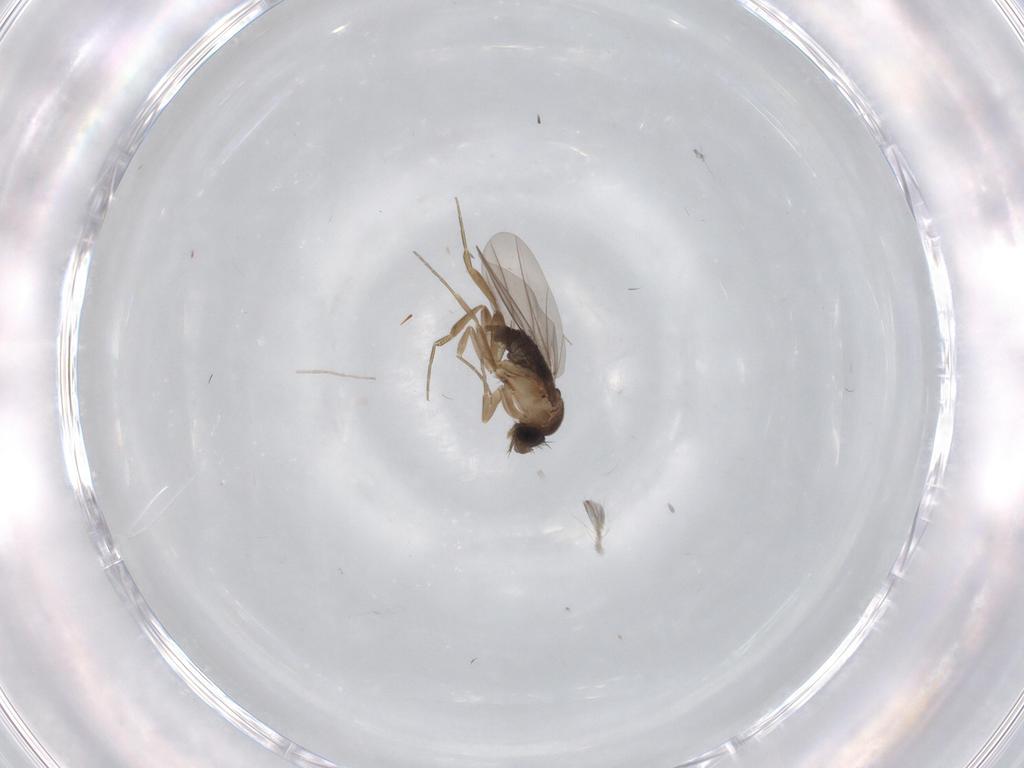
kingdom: Animalia
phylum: Arthropoda
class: Insecta
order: Diptera
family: Phoridae
